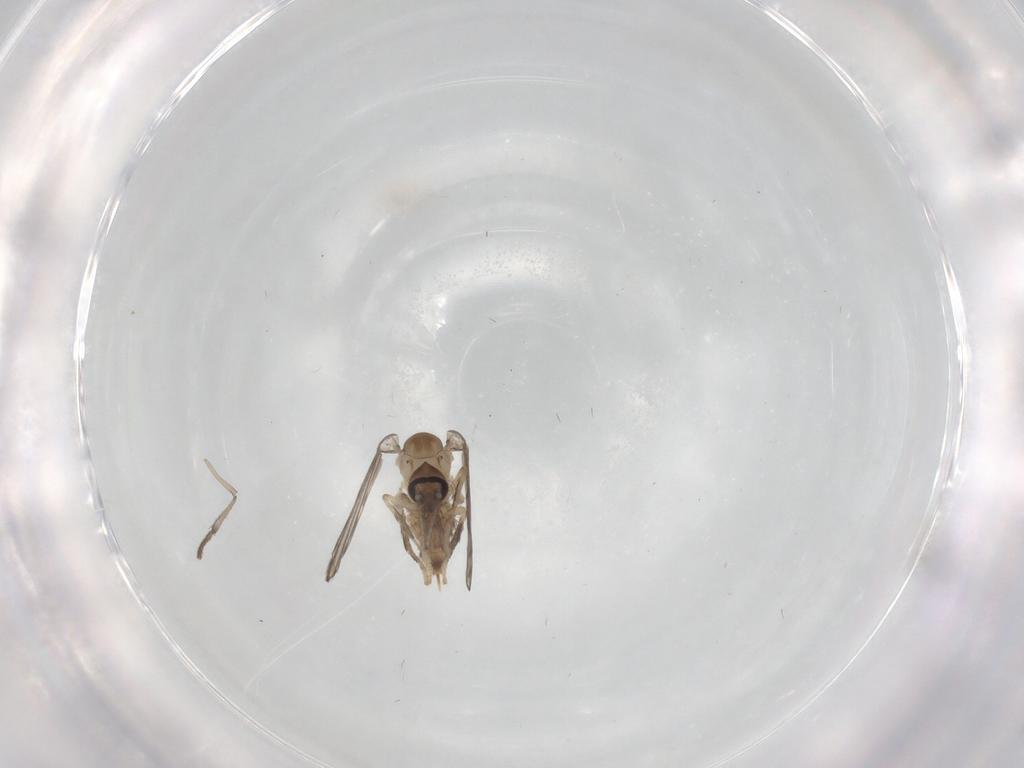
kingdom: Animalia
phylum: Arthropoda
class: Insecta
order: Diptera
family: Psychodidae
